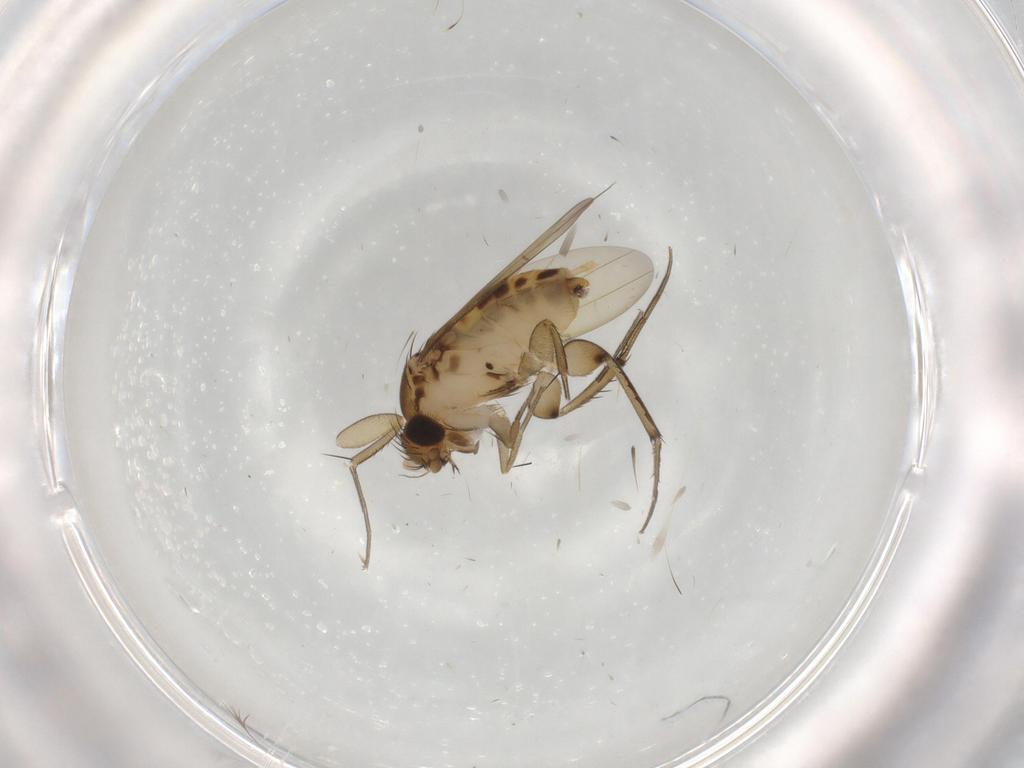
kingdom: Animalia
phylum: Arthropoda
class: Insecta
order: Diptera
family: Phoridae
